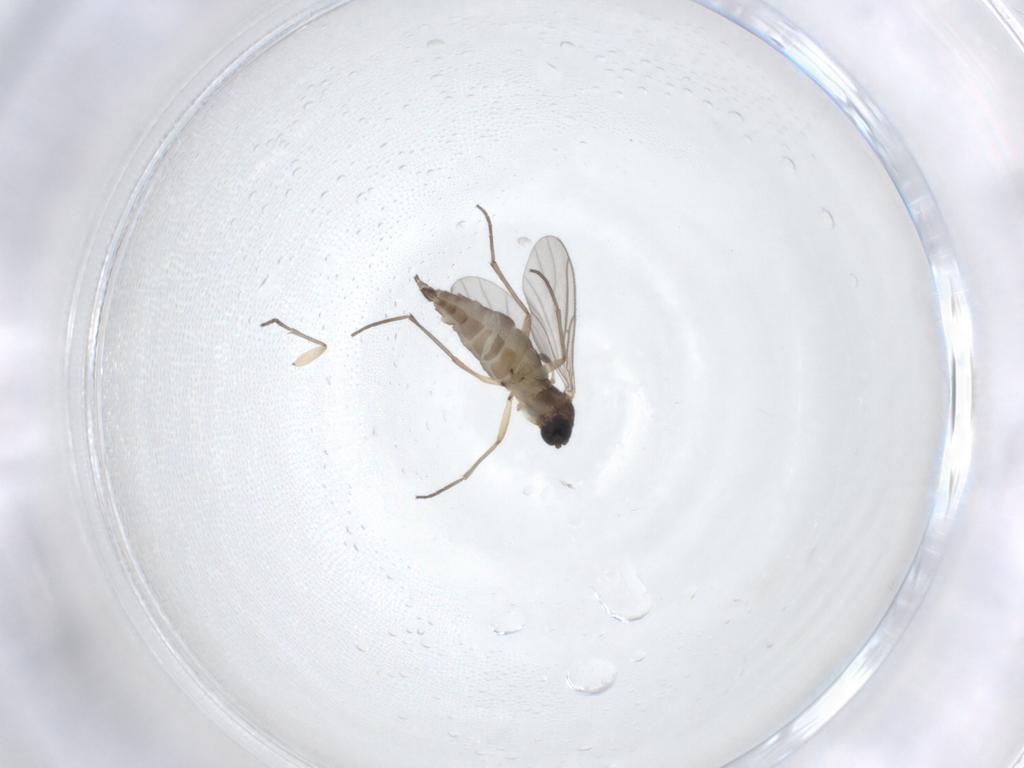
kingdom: Animalia
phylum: Arthropoda
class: Insecta
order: Diptera
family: Sciaridae
